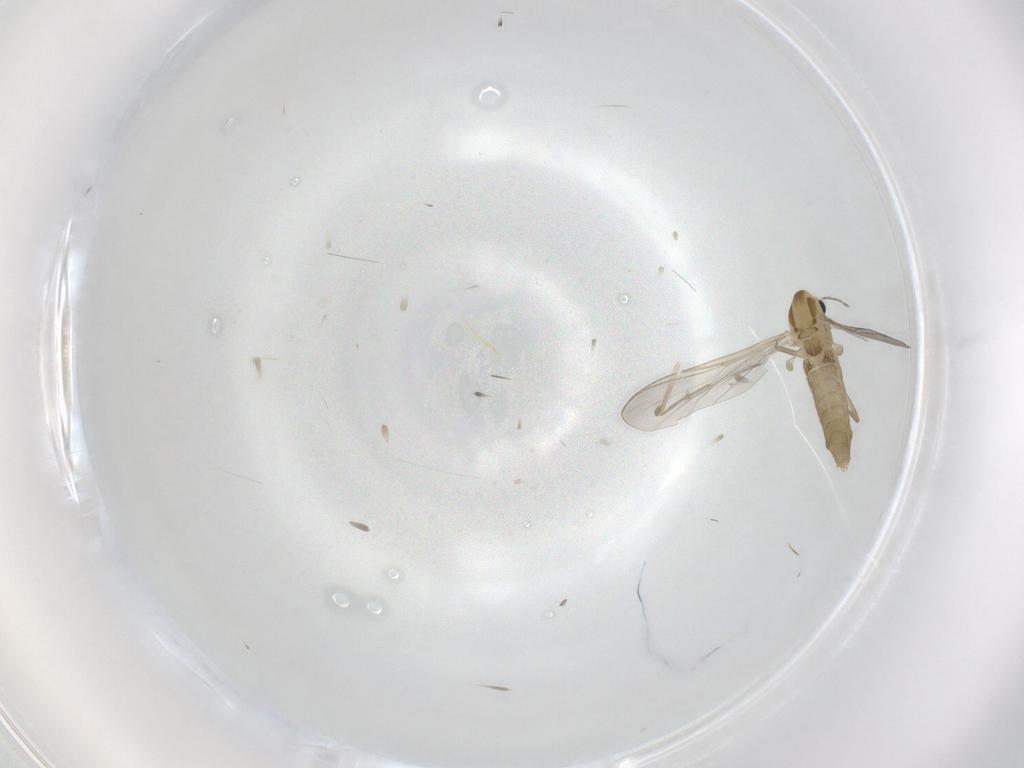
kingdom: Animalia
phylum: Arthropoda
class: Insecta
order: Diptera
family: Chironomidae
